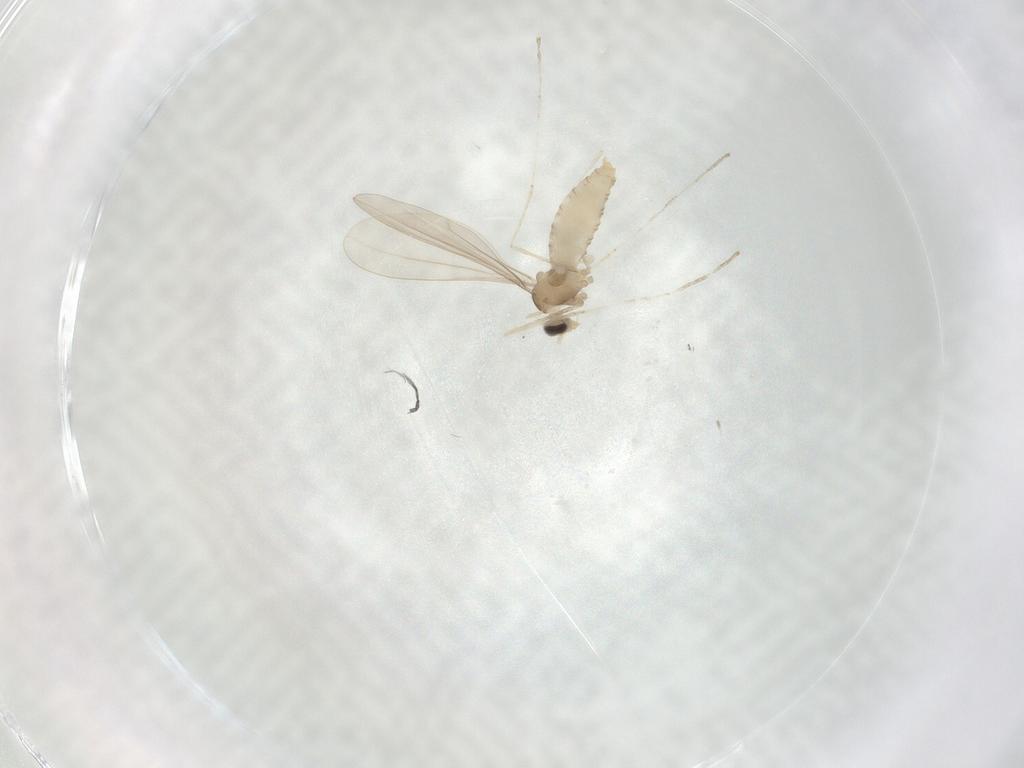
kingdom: Animalia
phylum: Arthropoda
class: Insecta
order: Diptera
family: Cecidomyiidae
